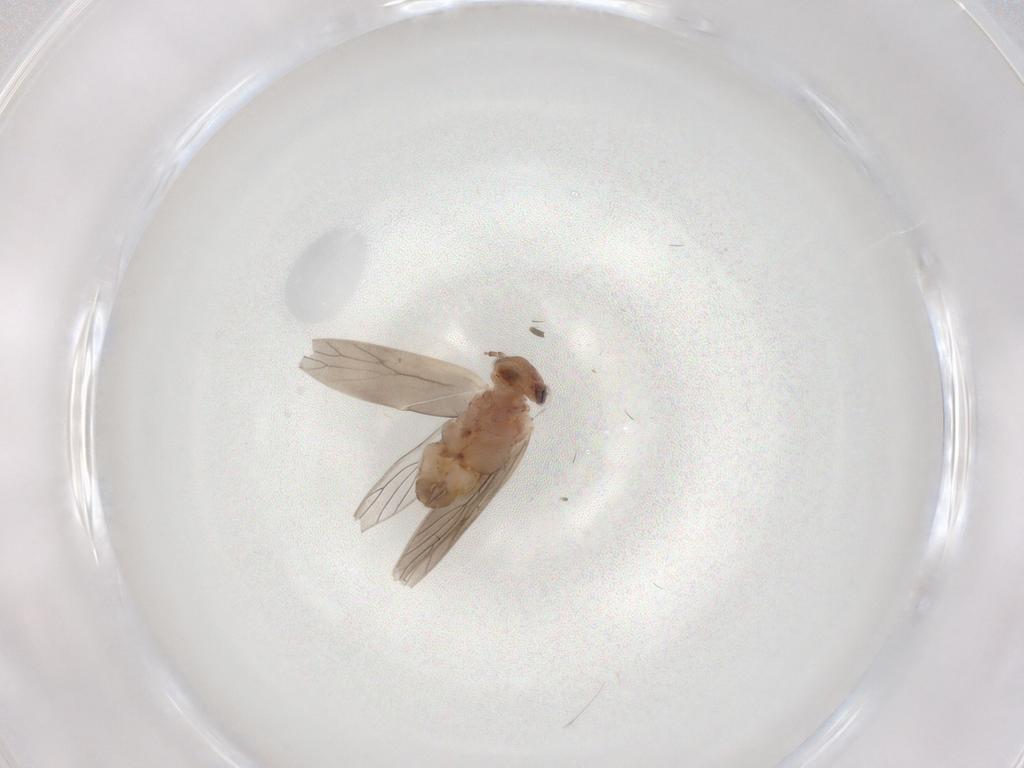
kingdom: Animalia
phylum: Arthropoda
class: Insecta
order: Psocodea
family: Lepidopsocidae
